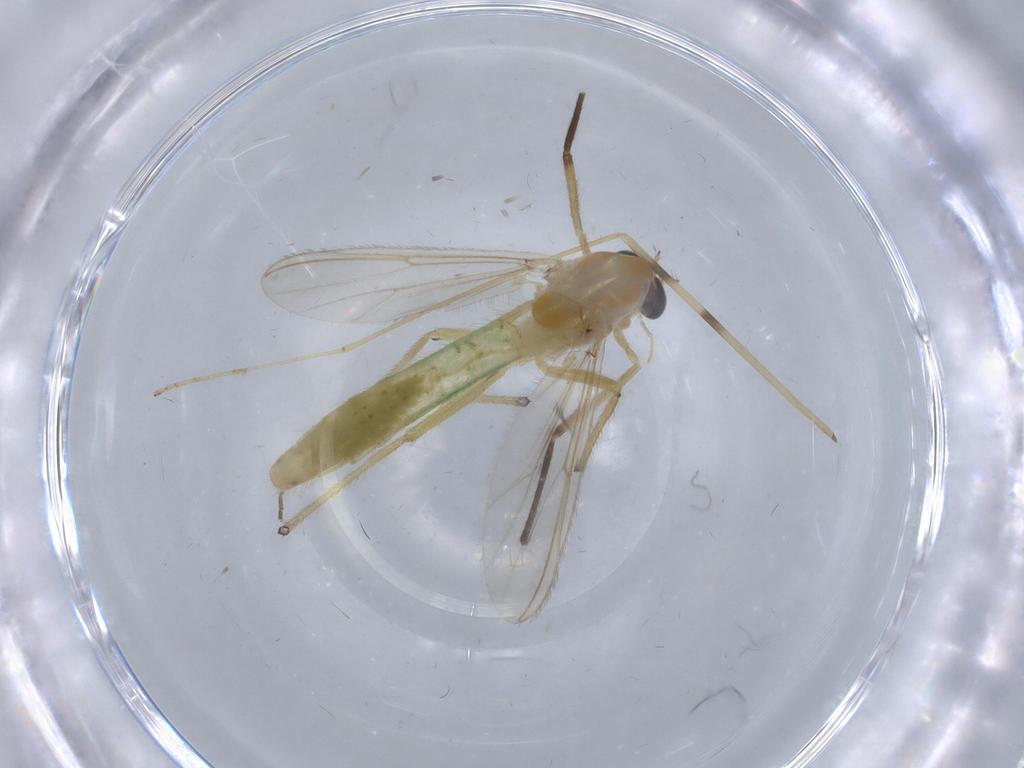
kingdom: Animalia
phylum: Arthropoda
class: Insecta
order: Diptera
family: Chironomidae
